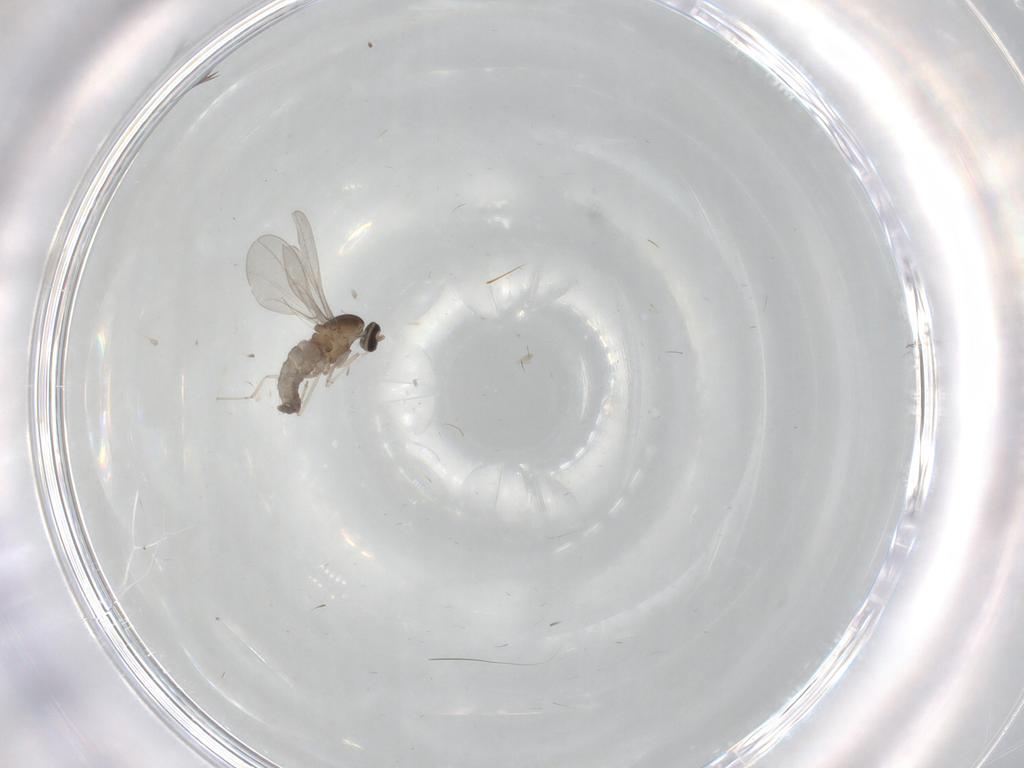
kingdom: Animalia
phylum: Arthropoda
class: Insecta
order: Diptera
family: Cecidomyiidae
